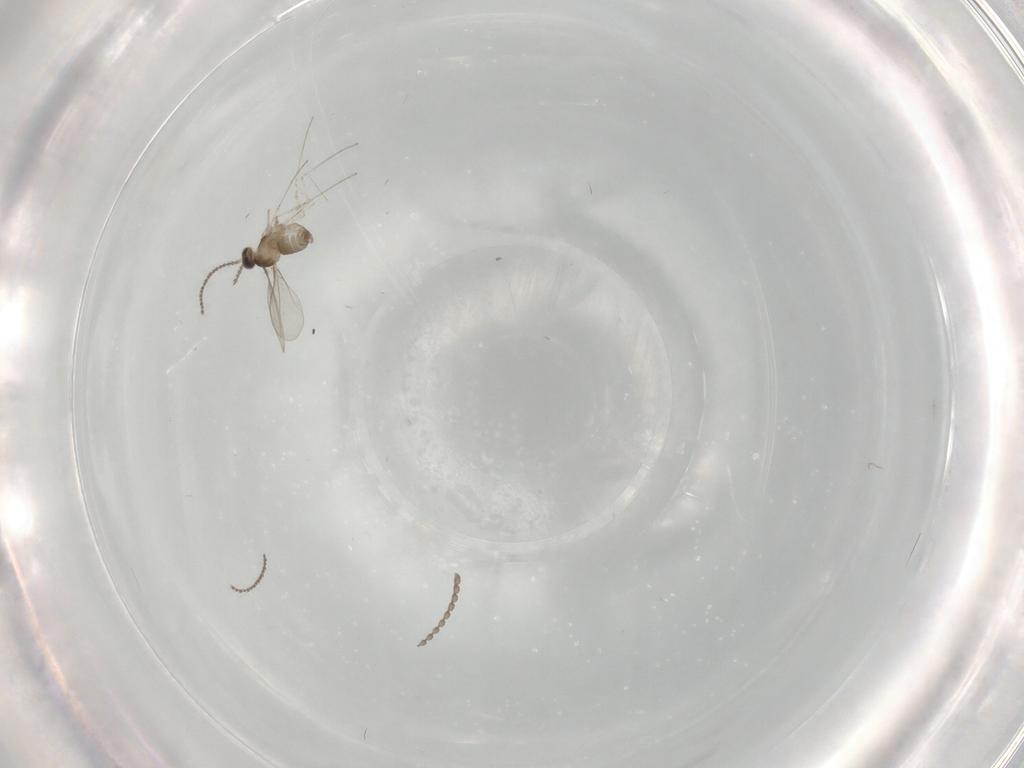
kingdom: Animalia
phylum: Arthropoda
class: Insecta
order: Diptera
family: Cecidomyiidae
